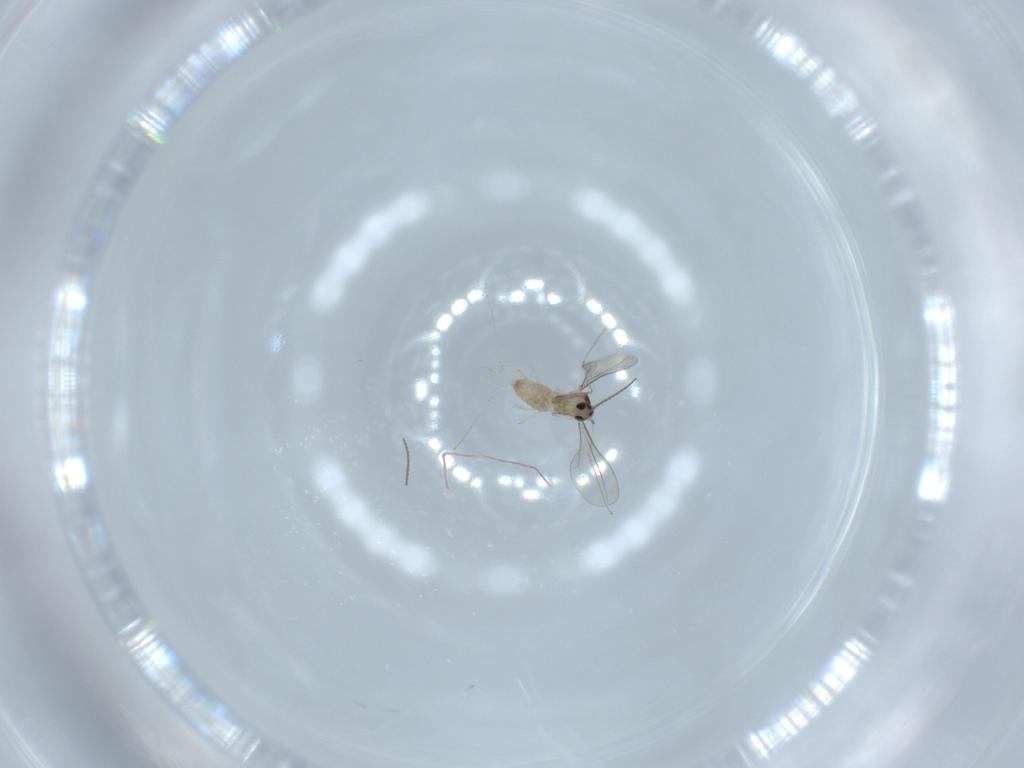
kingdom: Animalia
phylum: Arthropoda
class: Insecta
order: Diptera
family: Cecidomyiidae
